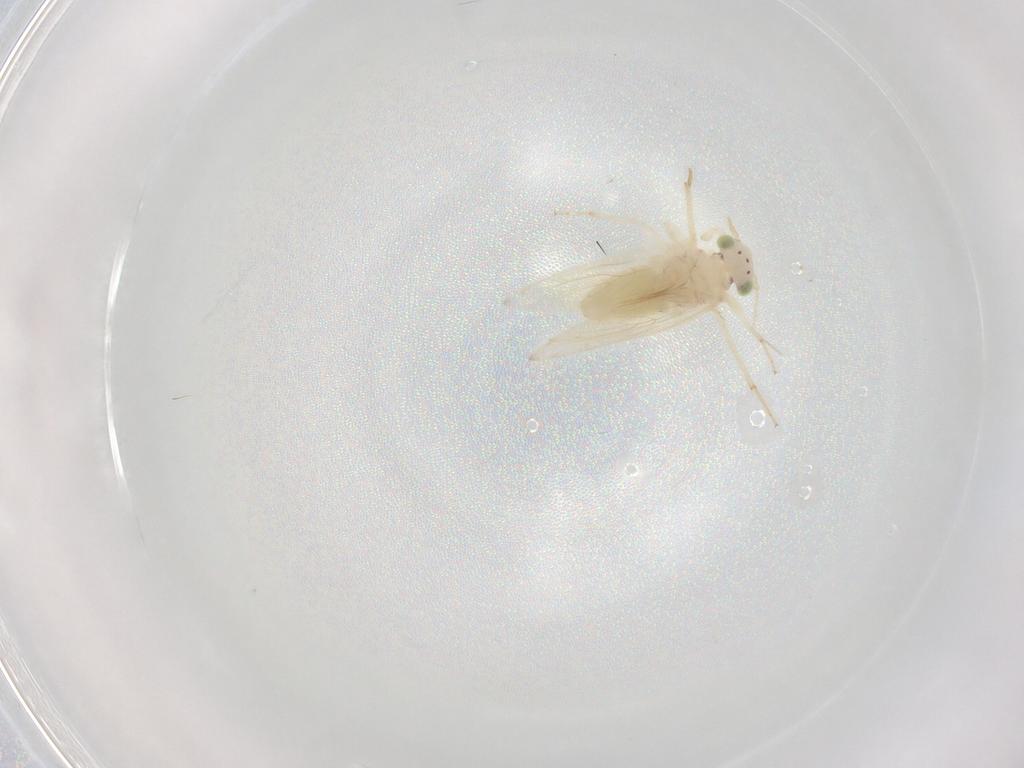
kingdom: Animalia
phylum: Arthropoda
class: Insecta
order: Psocodea
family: Lepidopsocidae
